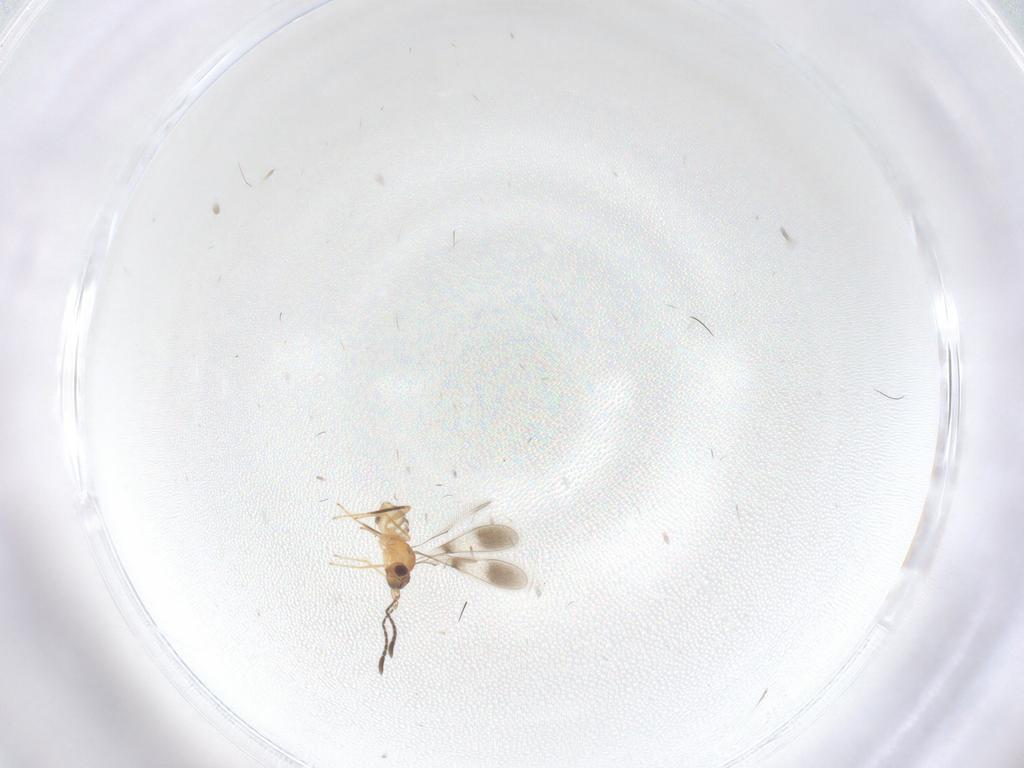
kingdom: Animalia
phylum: Arthropoda
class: Insecta
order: Hymenoptera
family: Mymaridae
